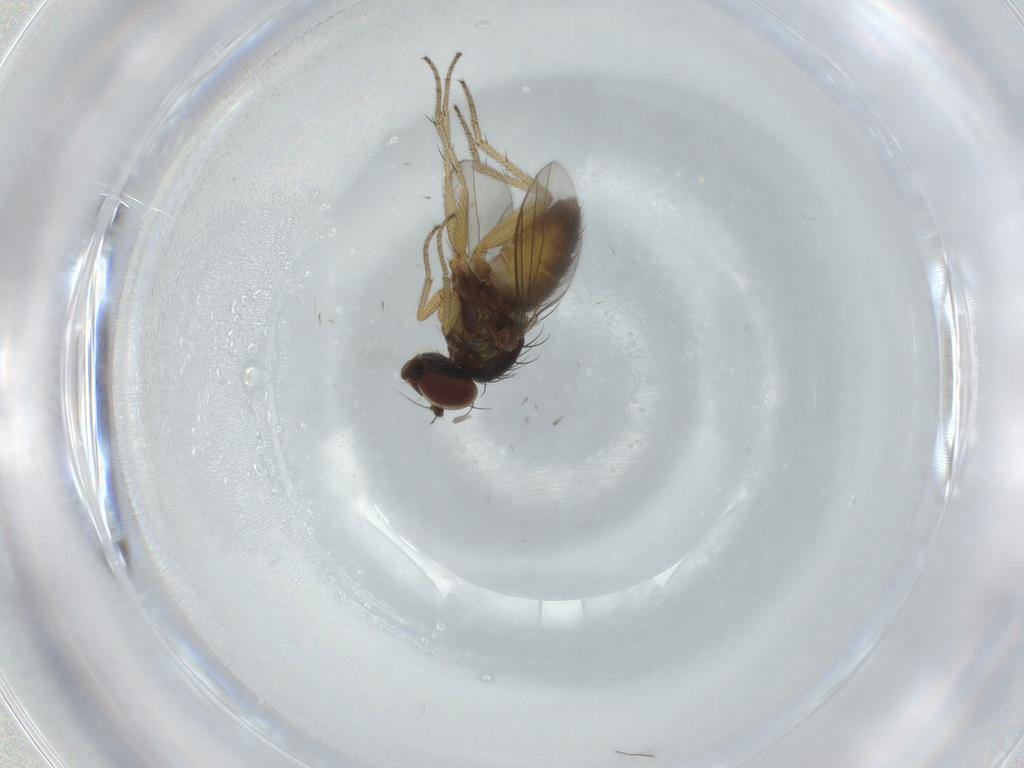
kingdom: Animalia
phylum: Arthropoda
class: Insecta
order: Diptera
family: Dolichopodidae
